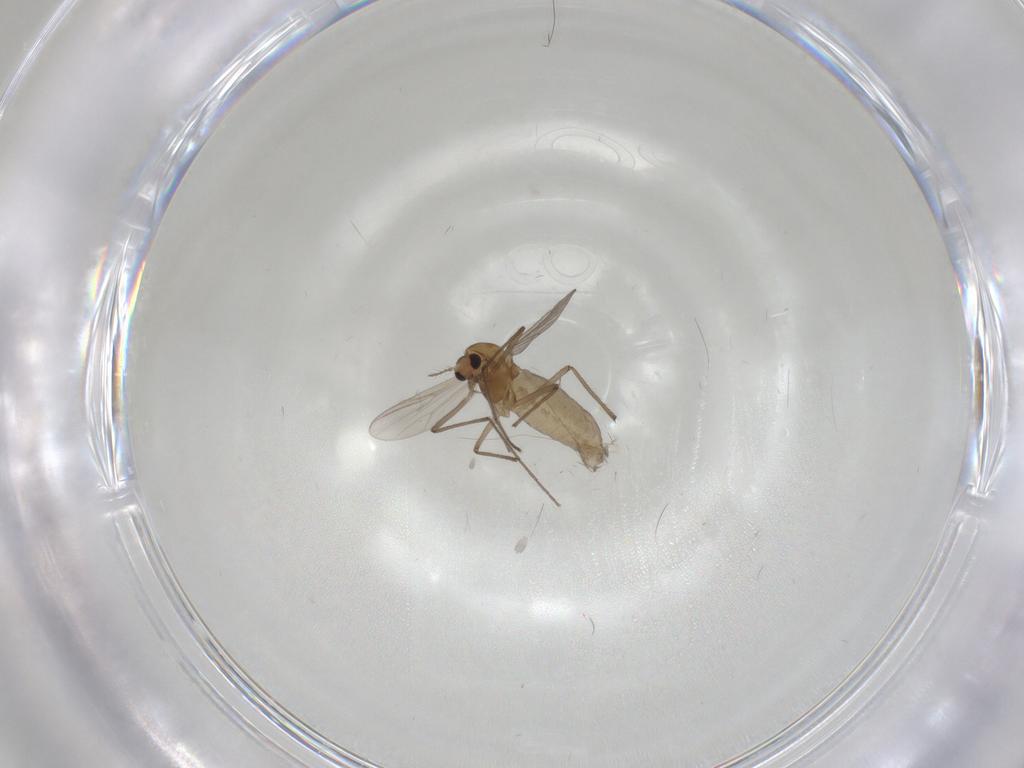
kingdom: Animalia
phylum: Arthropoda
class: Insecta
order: Diptera
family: Chironomidae
